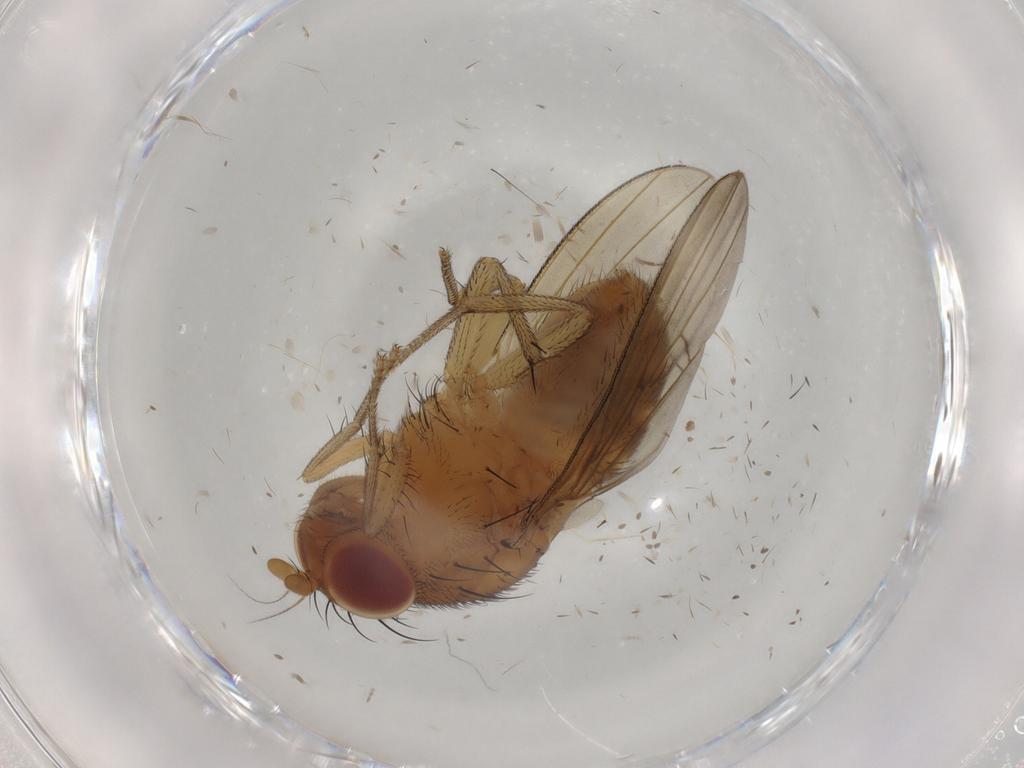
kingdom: Animalia
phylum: Arthropoda
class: Insecta
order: Diptera
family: Ceratopogonidae
